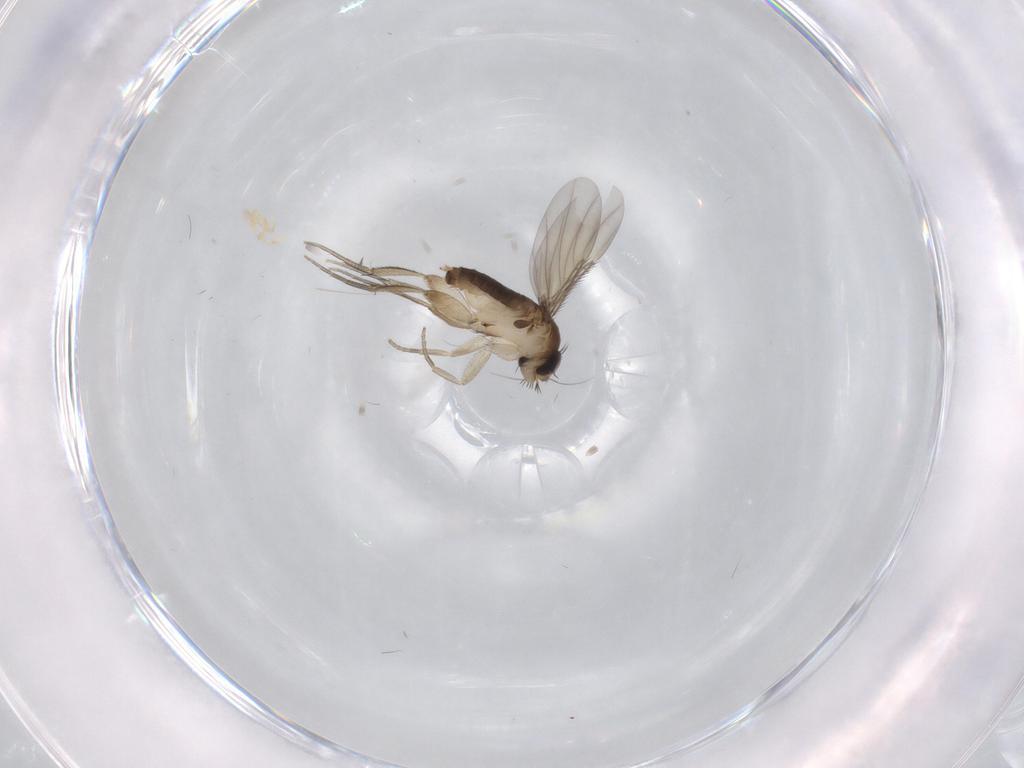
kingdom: Animalia
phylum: Arthropoda
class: Insecta
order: Diptera
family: Phoridae
